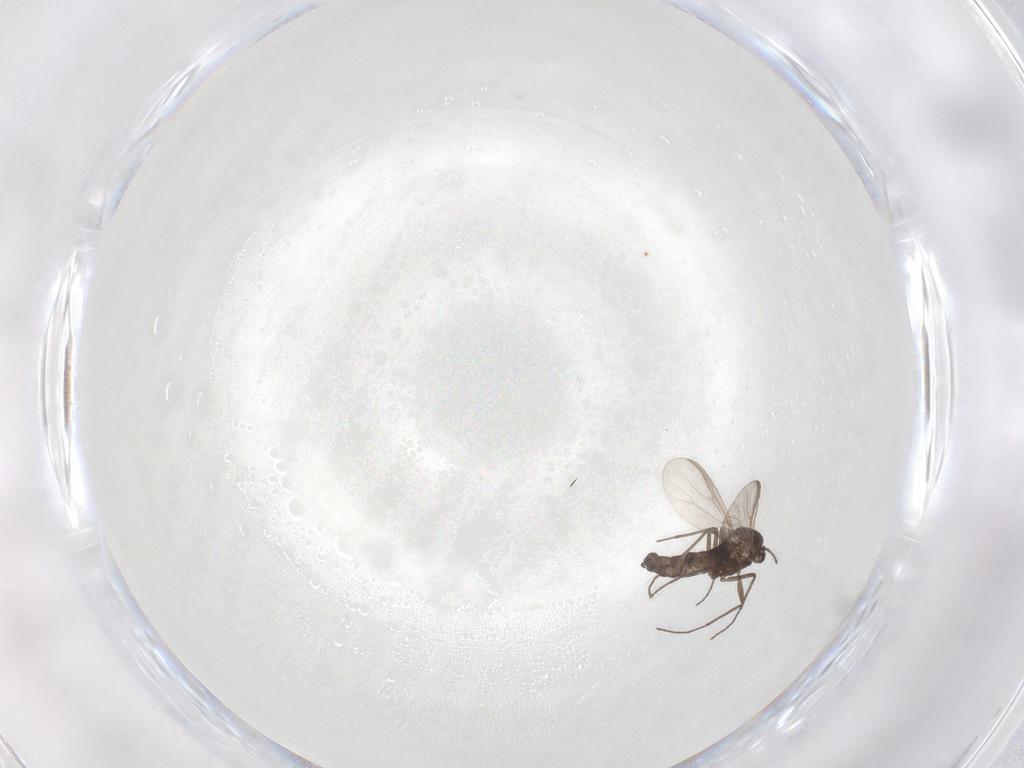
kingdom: Animalia
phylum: Arthropoda
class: Insecta
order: Diptera
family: Chironomidae
